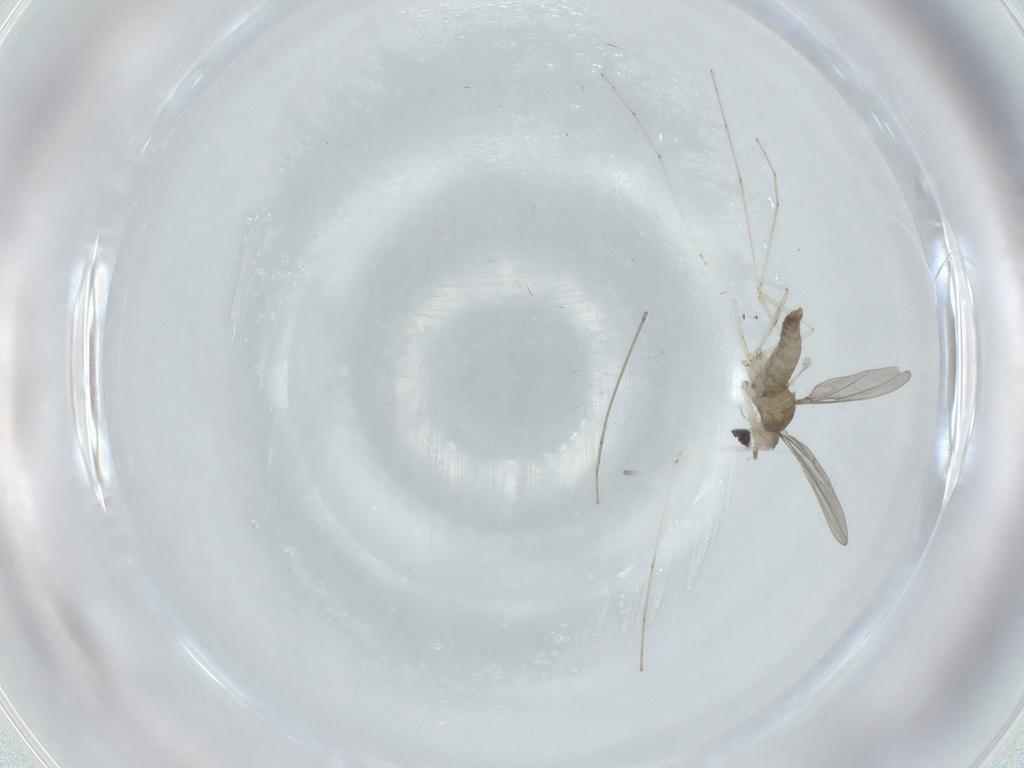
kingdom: Animalia
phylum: Arthropoda
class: Insecta
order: Diptera
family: Cecidomyiidae
